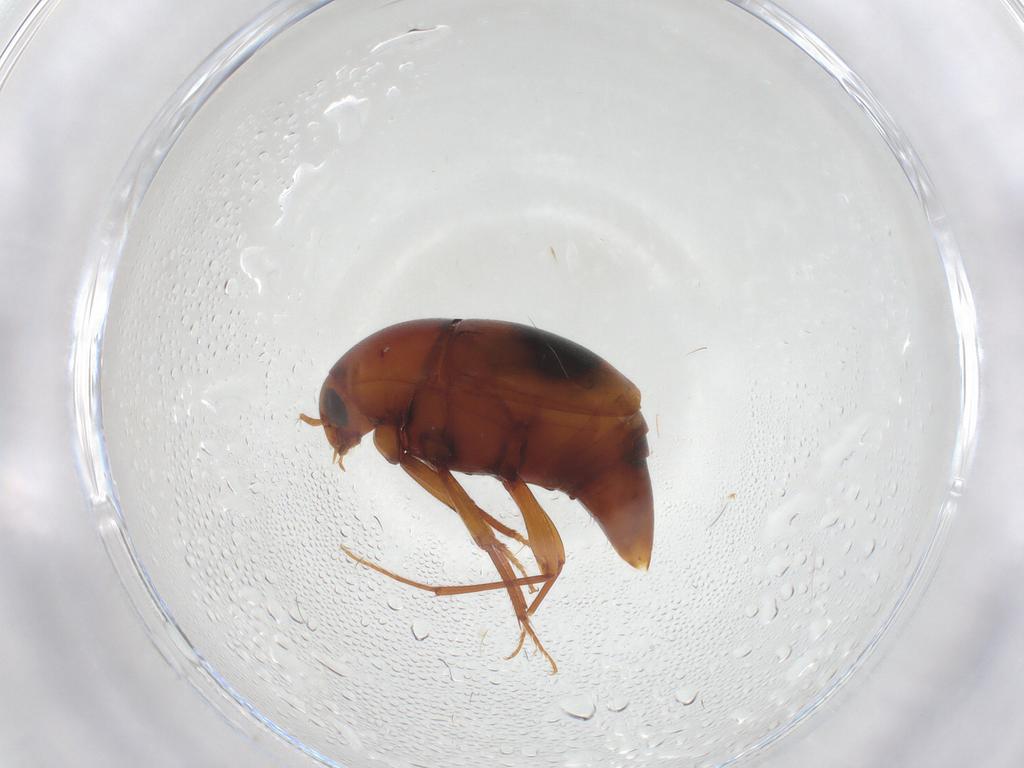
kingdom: Animalia
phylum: Arthropoda
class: Insecta
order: Coleoptera
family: Staphylinidae
